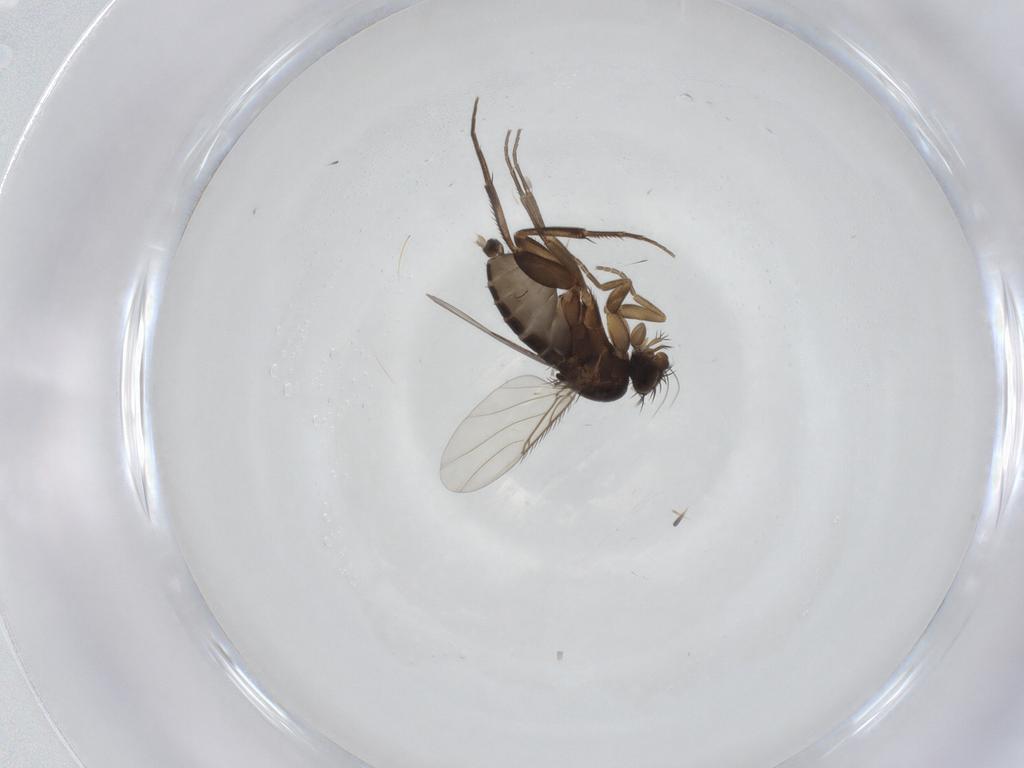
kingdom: Animalia
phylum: Arthropoda
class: Insecta
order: Diptera
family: Phoridae
